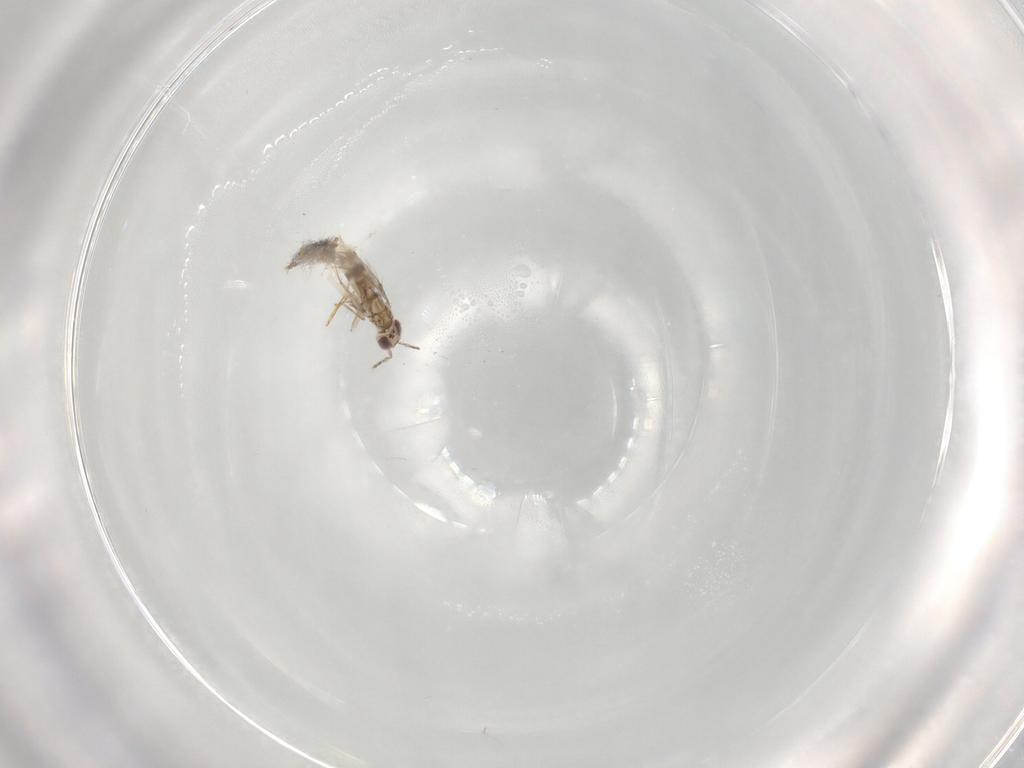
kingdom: Animalia
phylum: Arthropoda
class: Insecta
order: Hymenoptera
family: Mymaridae
